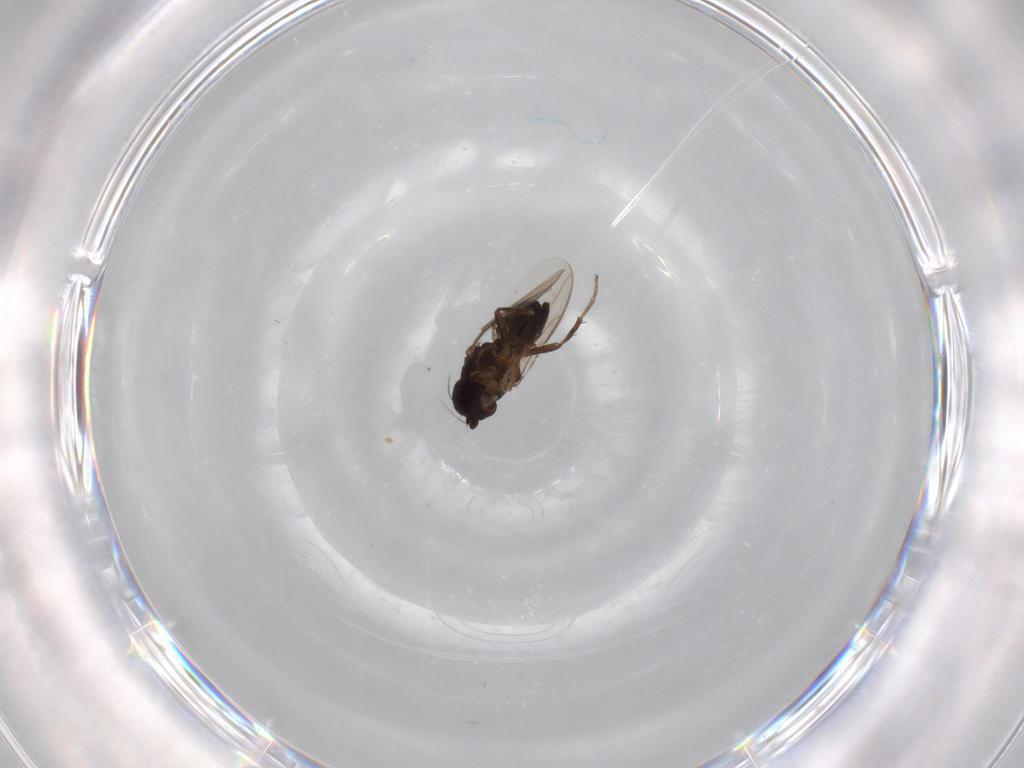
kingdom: Animalia
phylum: Arthropoda
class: Insecta
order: Diptera
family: Sphaeroceridae
